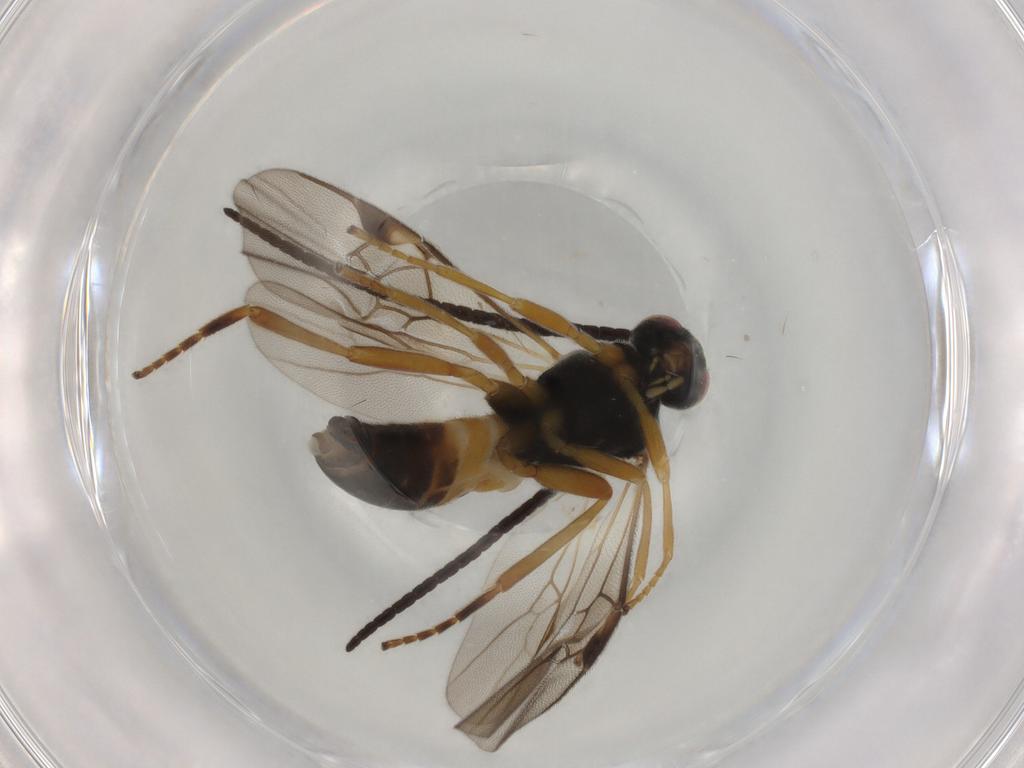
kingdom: Animalia
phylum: Arthropoda
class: Insecta
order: Hymenoptera
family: Braconidae
